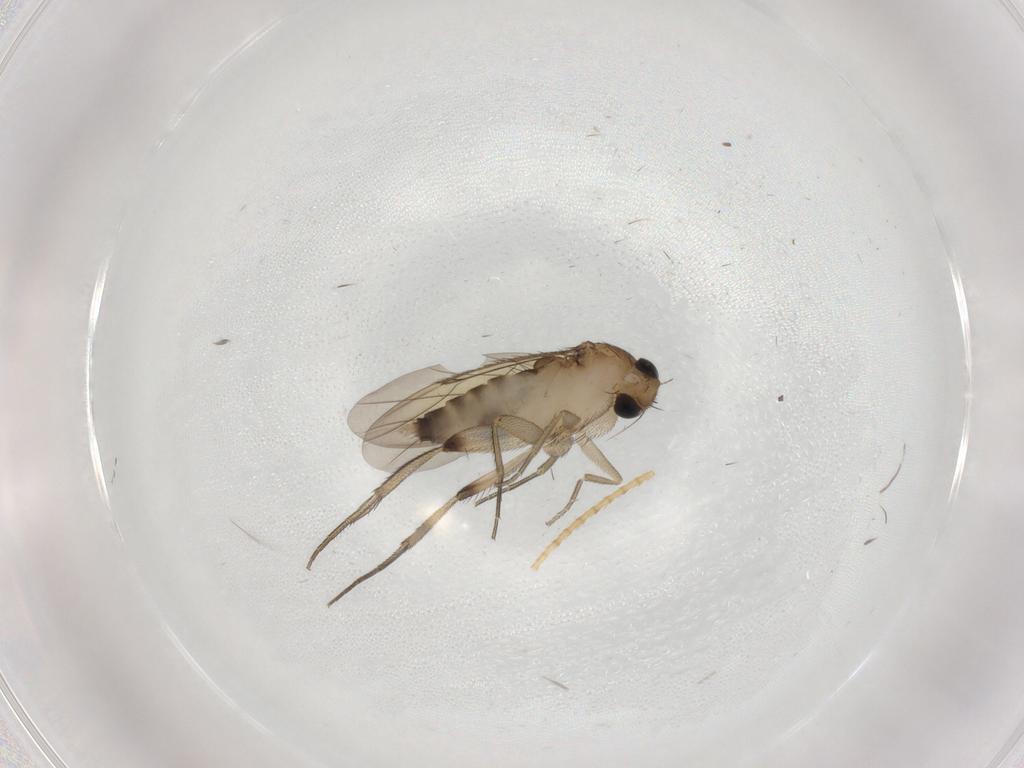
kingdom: Animalia
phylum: Arthropoda
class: Insecta
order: Diptera
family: Phoridae
